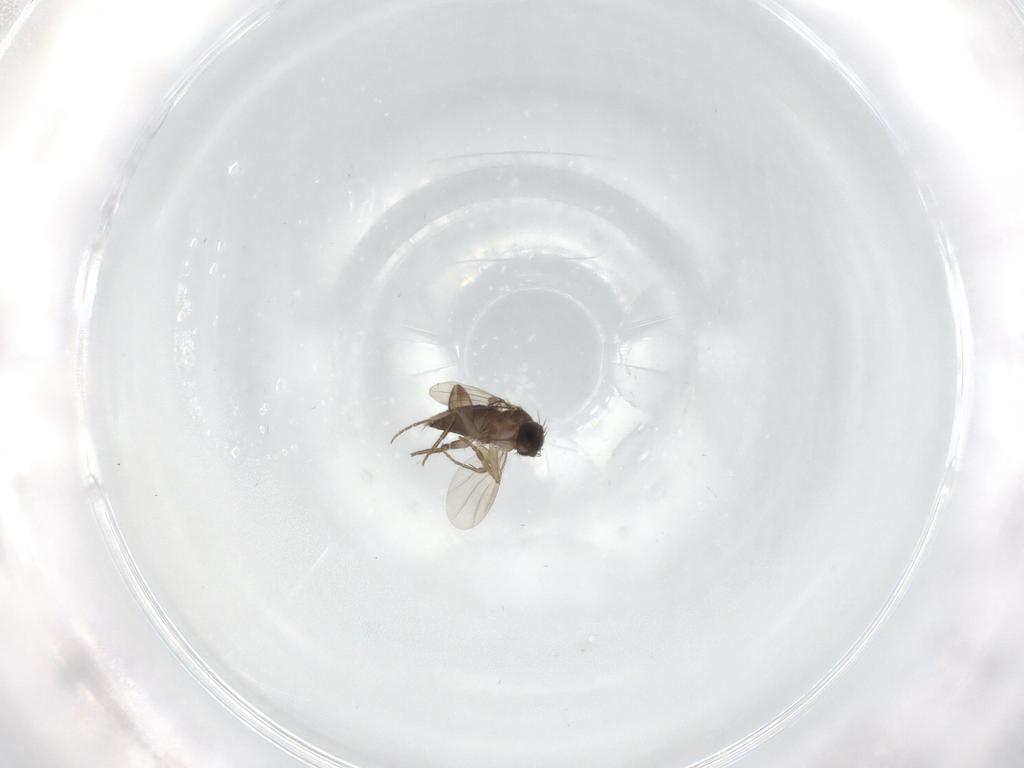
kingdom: Animalia
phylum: Arthropoda
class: Insecta
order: Diptera
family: Phoridae
